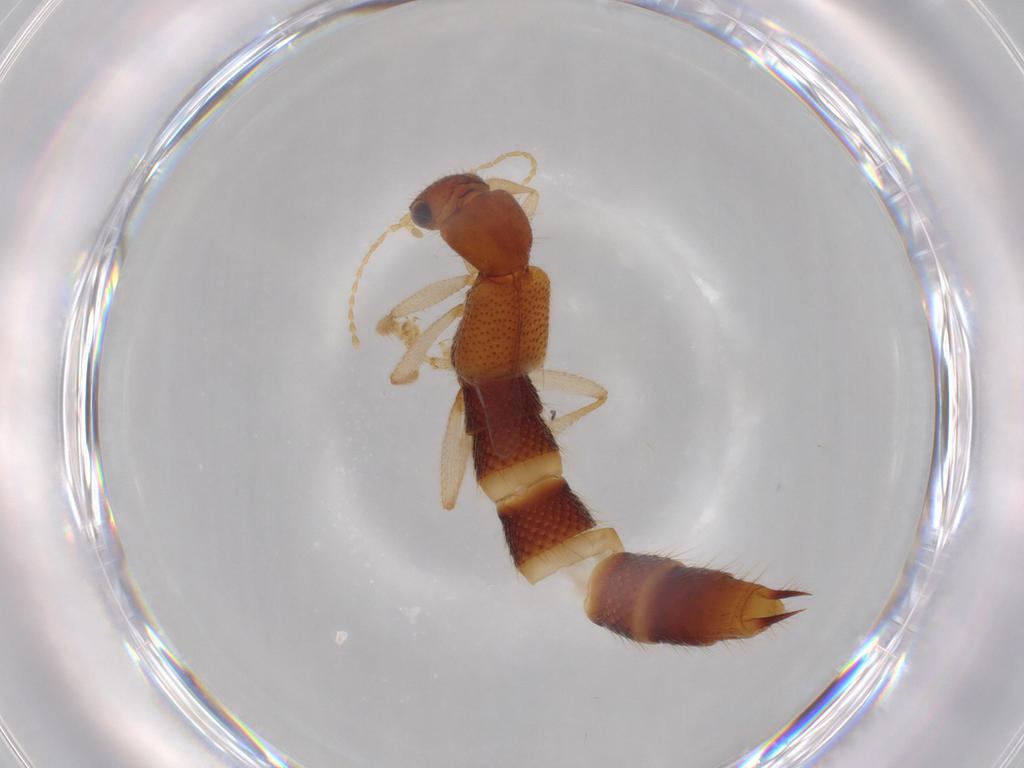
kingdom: Animalia
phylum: Arthropoda
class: Insecta
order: Coleoptera
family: Staphylinidae
